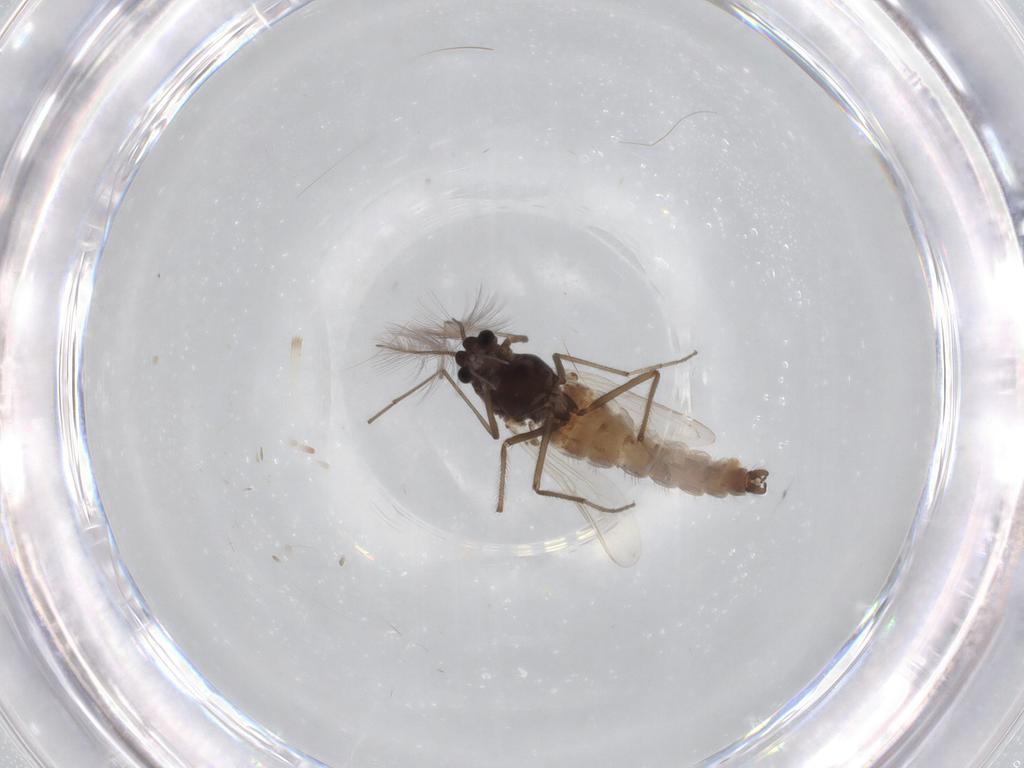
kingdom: Animalia
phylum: Arthropoda
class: Insecta
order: Diptera
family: Chironomidae
